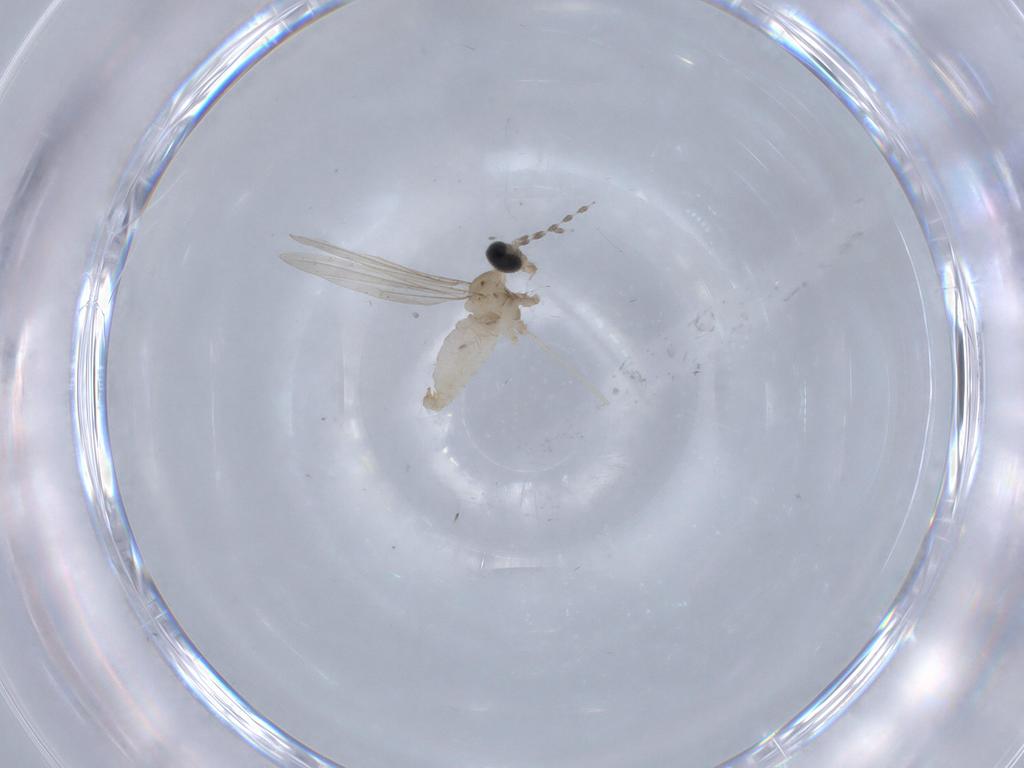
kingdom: Animalia
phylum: Arthropoda
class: Insecta
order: Diptera
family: Cecidomyiidae
